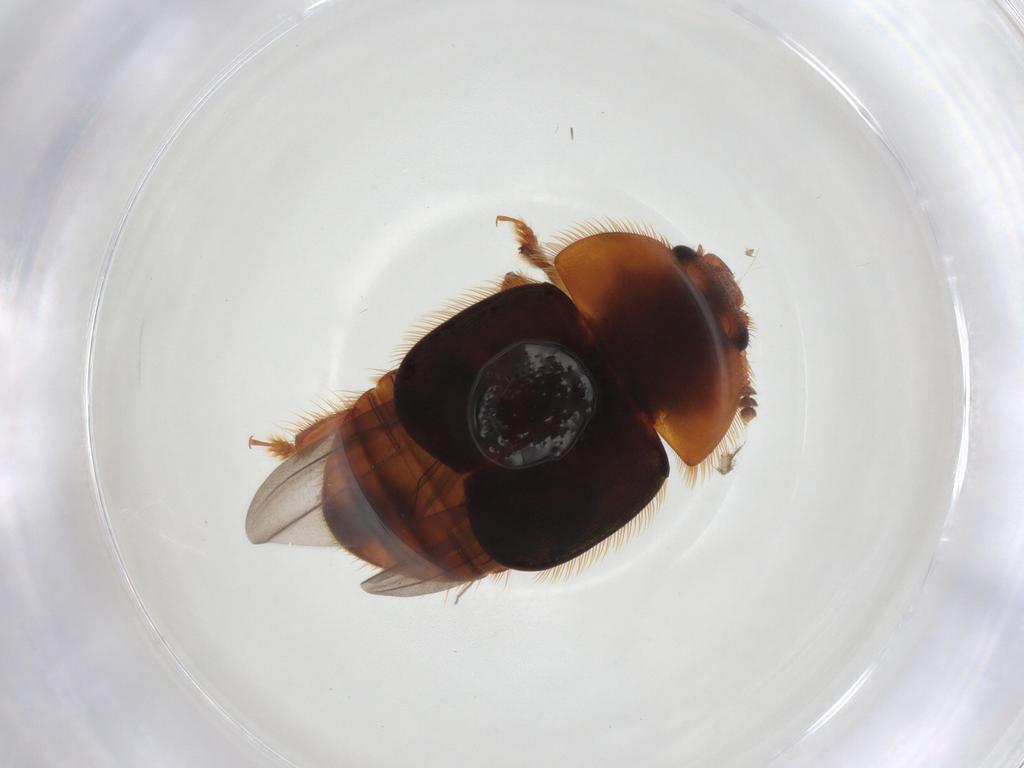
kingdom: Animalia
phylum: Arthropoda
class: Insecta
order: Coleoptera
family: Nitidulidae
